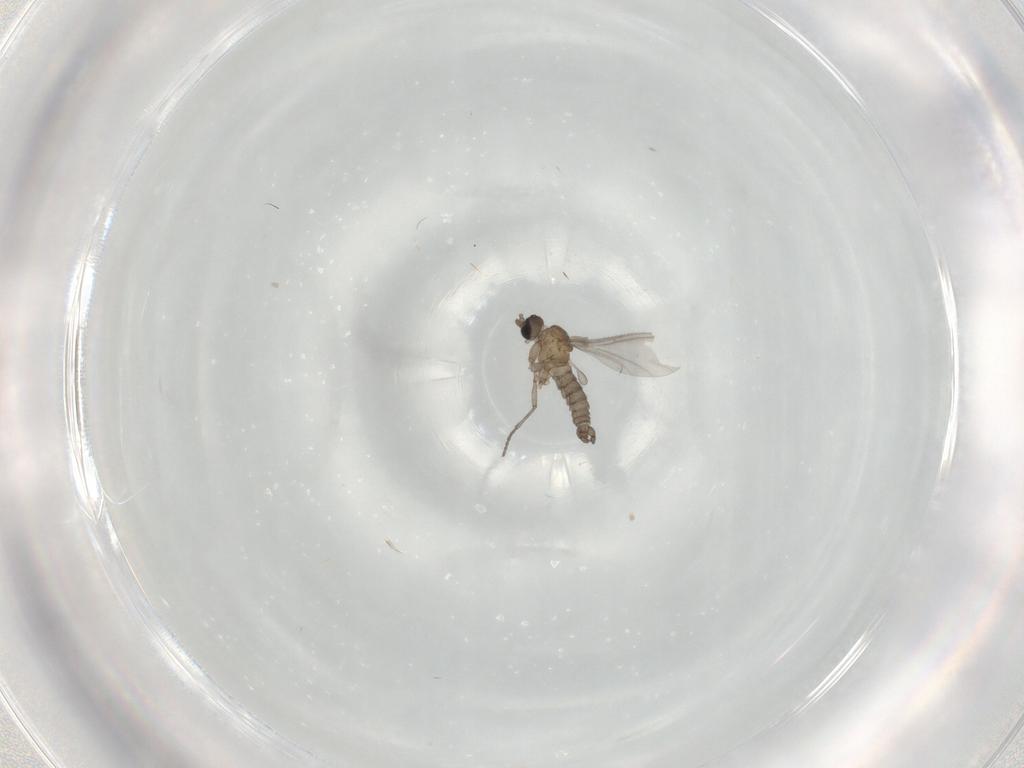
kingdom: Animalia
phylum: Arthropoda
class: Insecta
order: Diptera
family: Sciaridae
